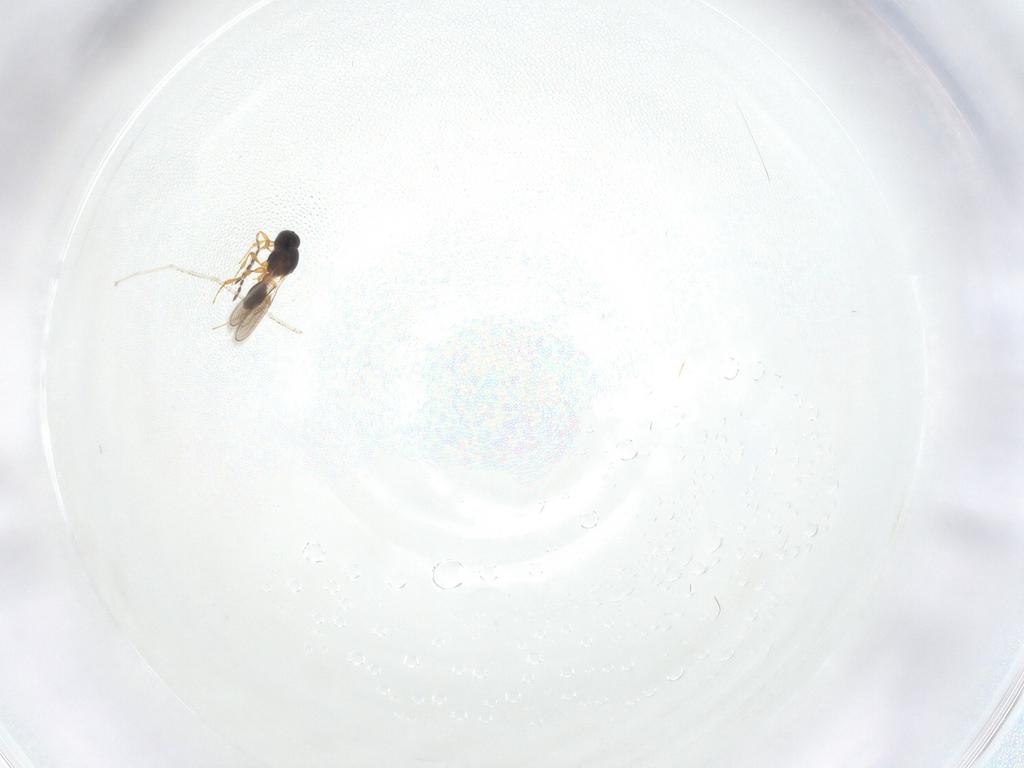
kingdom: Animalia
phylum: Arthropoda
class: Insecta
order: Diptera
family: Cecidomyiidae
